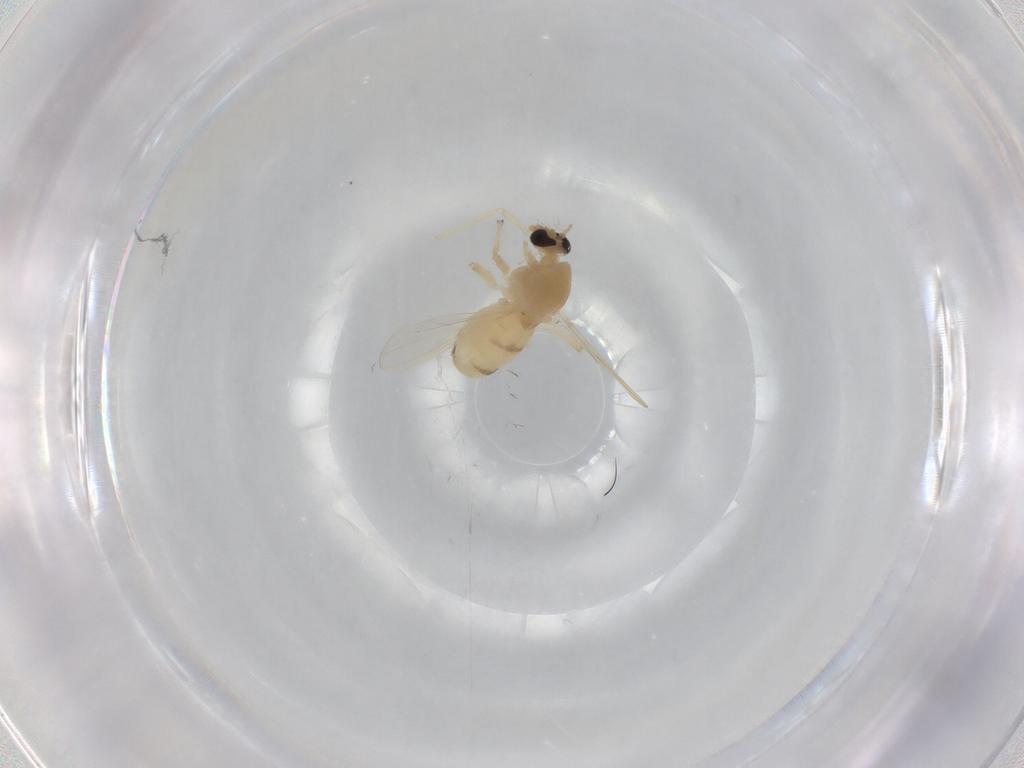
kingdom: Animalia
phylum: Arthropoda
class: Insecta
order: Diptera
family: Chironomidae
